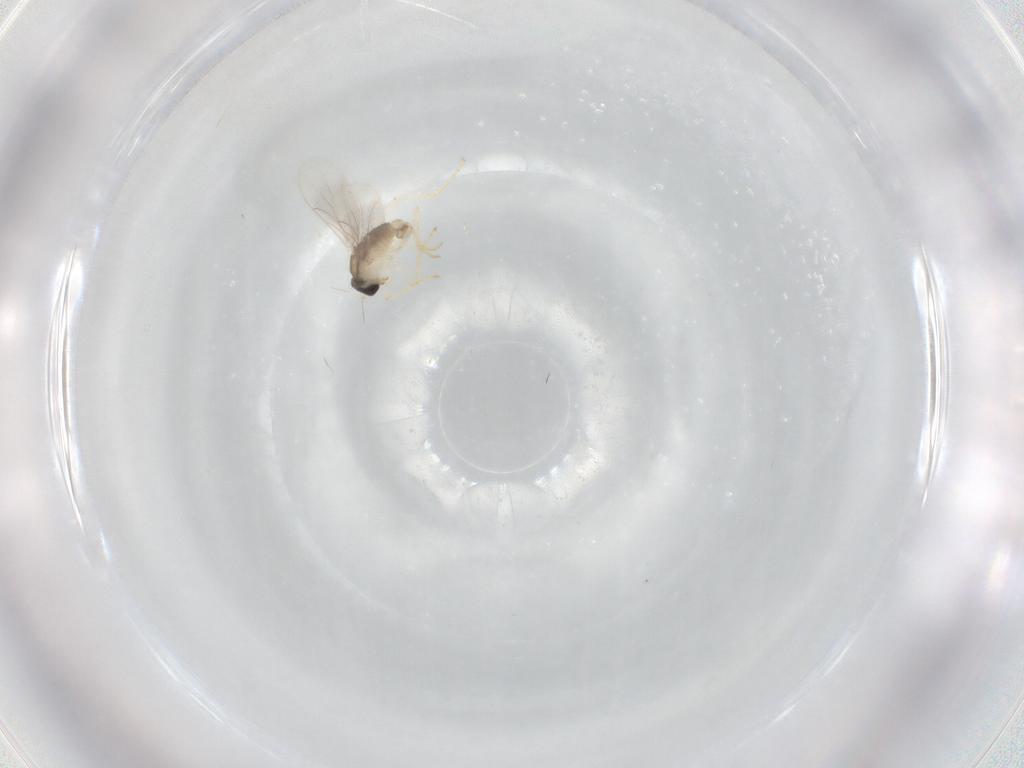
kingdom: Animalia
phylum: Arthropoda
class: Insecta
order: Diptera
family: Hybotidae
